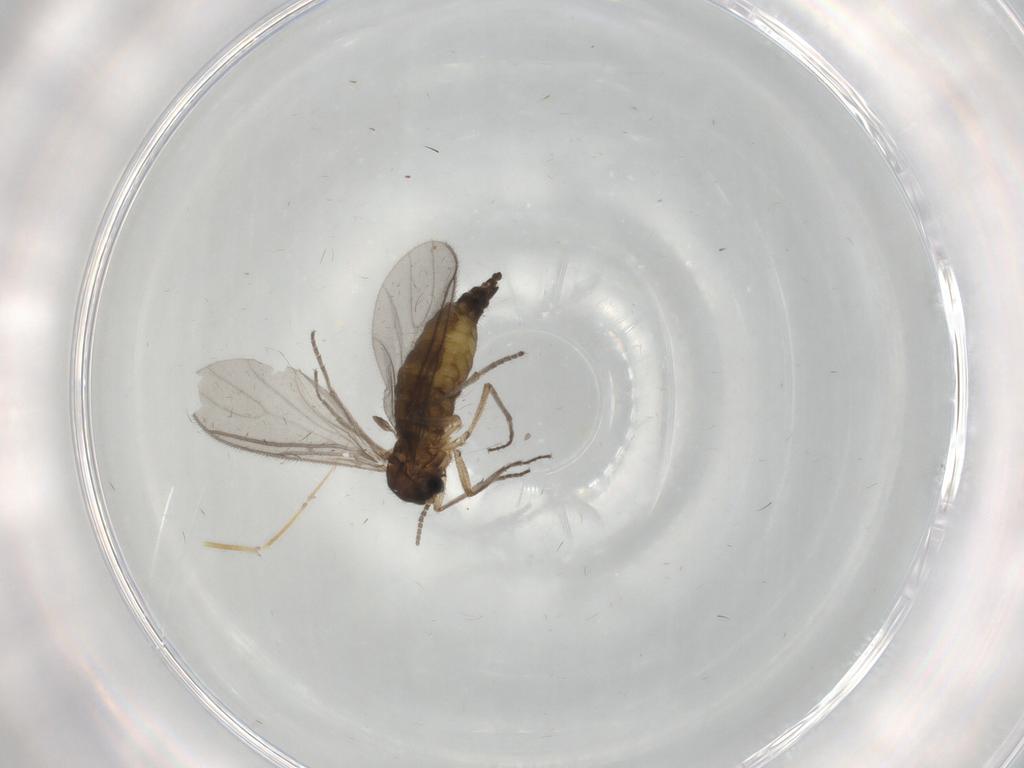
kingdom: Animalia
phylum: Arthropoda
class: Insecta
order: Diptera
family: Sciaridae
